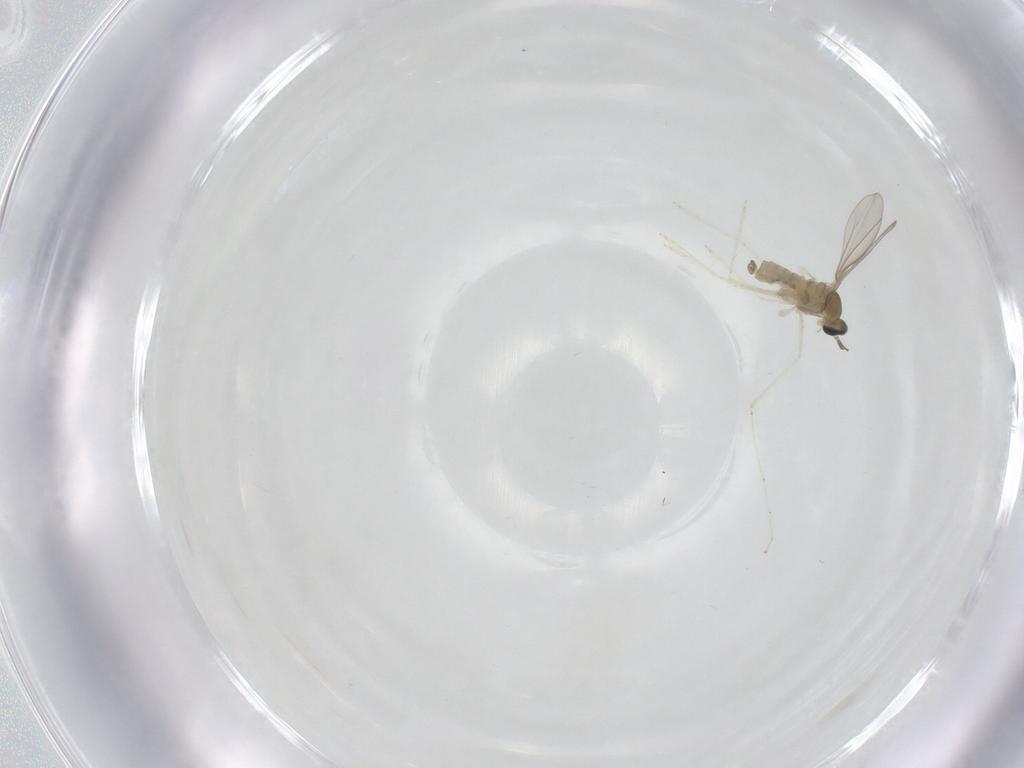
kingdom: Animalia
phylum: Arthropoda
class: Insecta
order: Diptera
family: Cecidomyiidae
